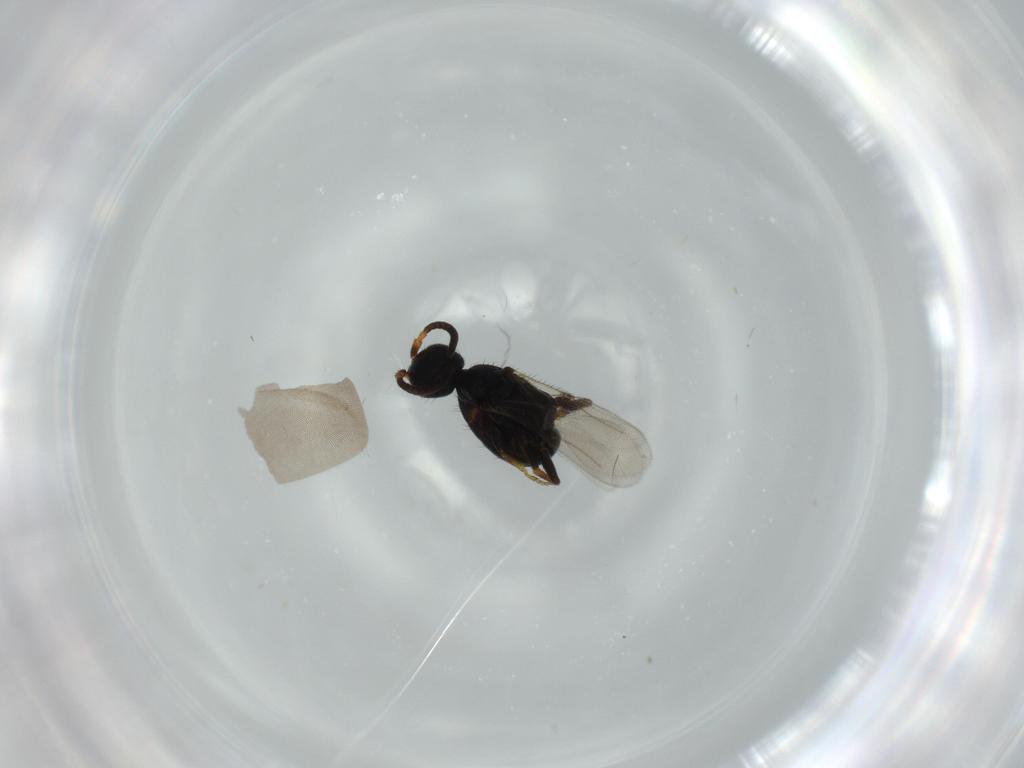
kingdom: Animalia
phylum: Arthropoda
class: Insecta
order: Hymenoptera
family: Bethylidae
